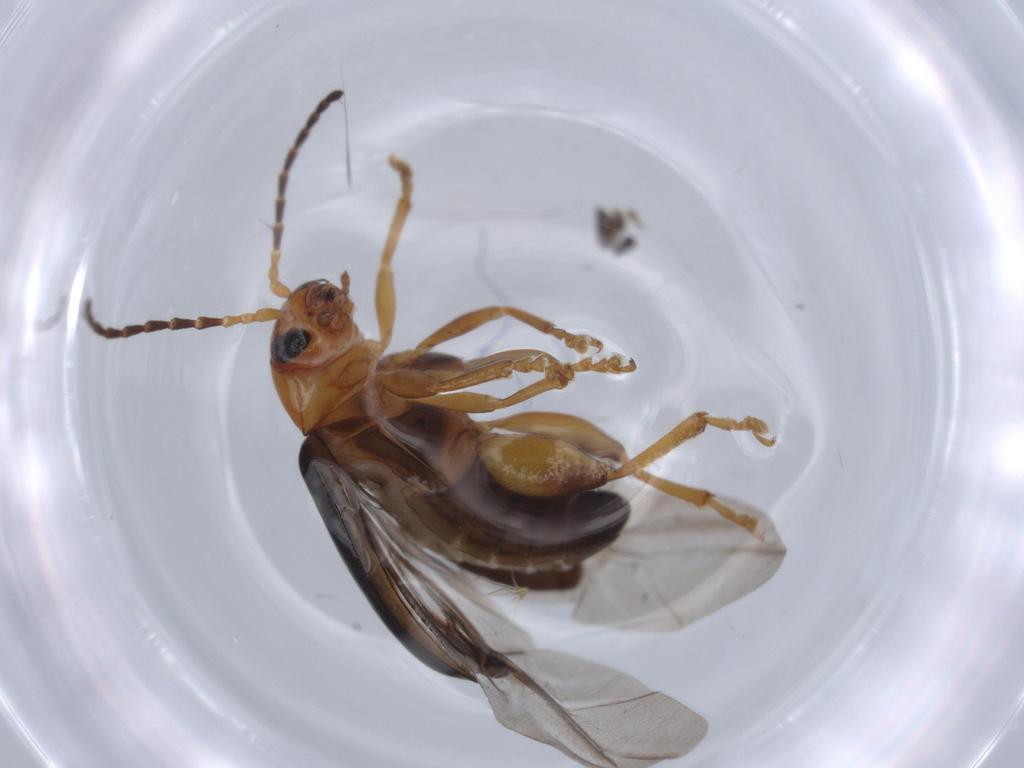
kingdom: Animalia
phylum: Arthropoda
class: Insecta
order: Coleoptera
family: Chrysomelidae
